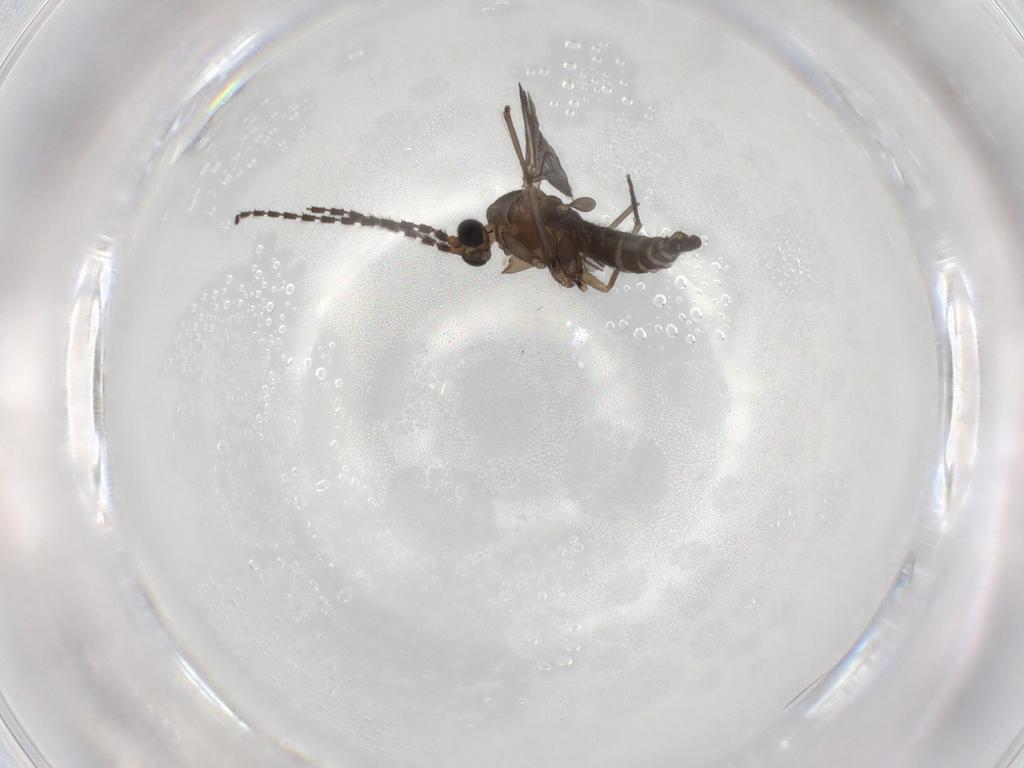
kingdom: Animalia
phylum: Arthropoda
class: Insecta
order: Diptera
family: Sciaridae
